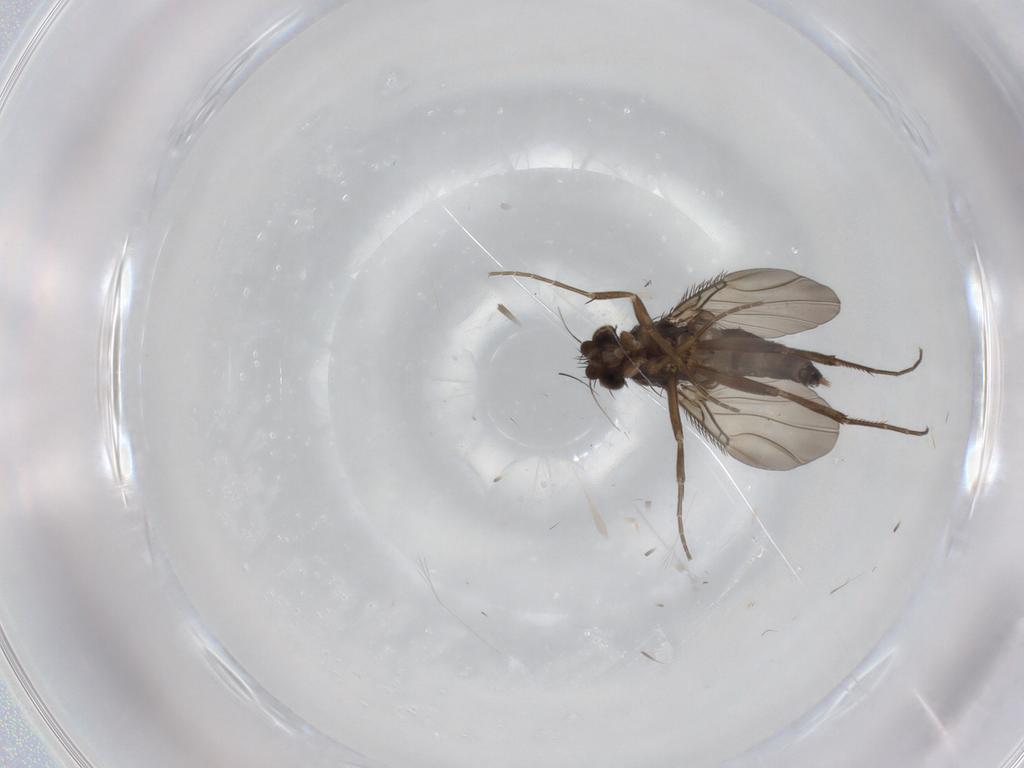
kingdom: Animalia
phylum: Arthropoda
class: Insecta
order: Diptera
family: Phoridae
